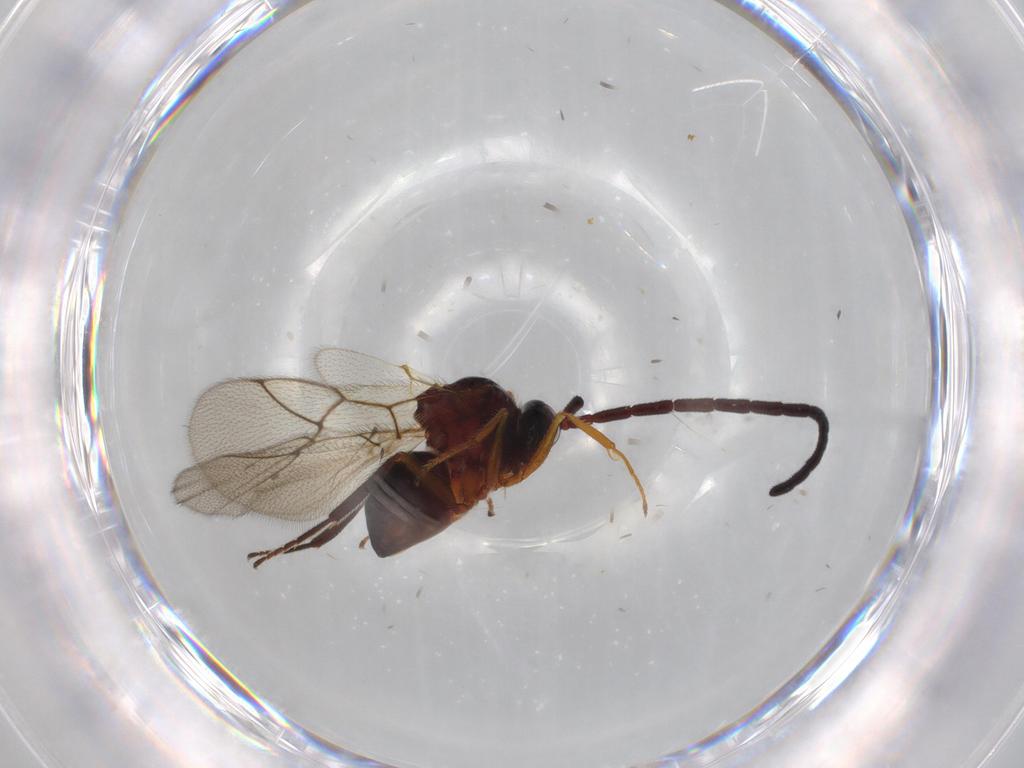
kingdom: Animalia
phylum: Arthropoda
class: Insecta
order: Hymenoptera
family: Figitidae
